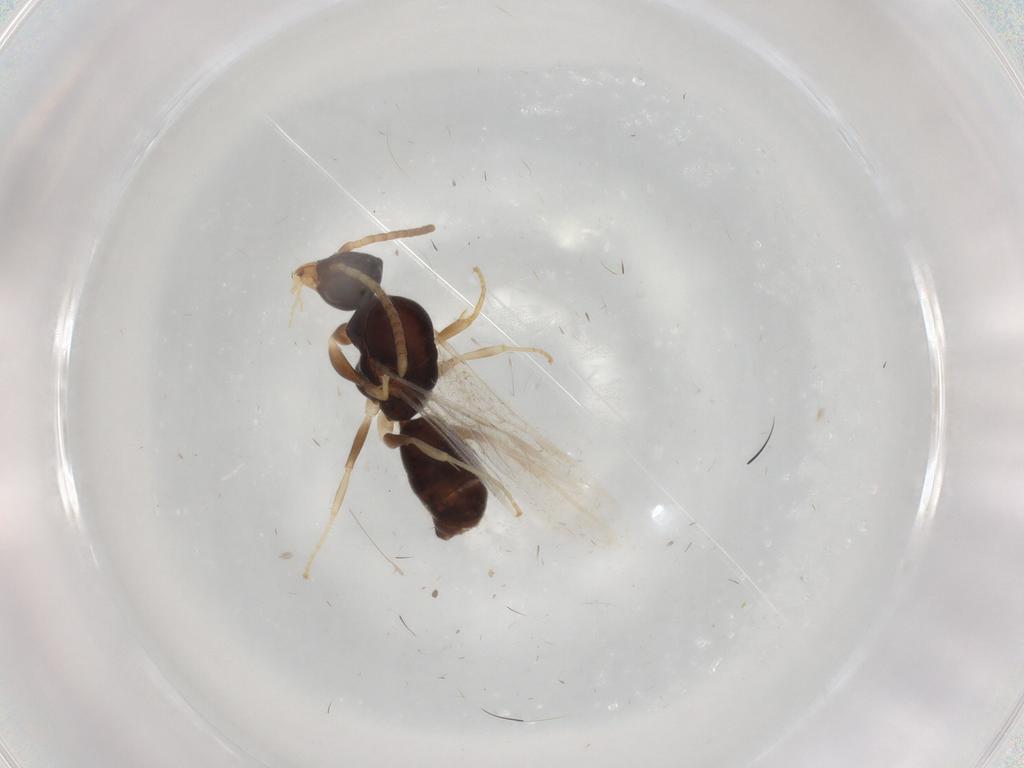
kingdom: Animalia
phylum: Arthropoda
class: Insecta
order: Hymenoptera
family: Formicidae
